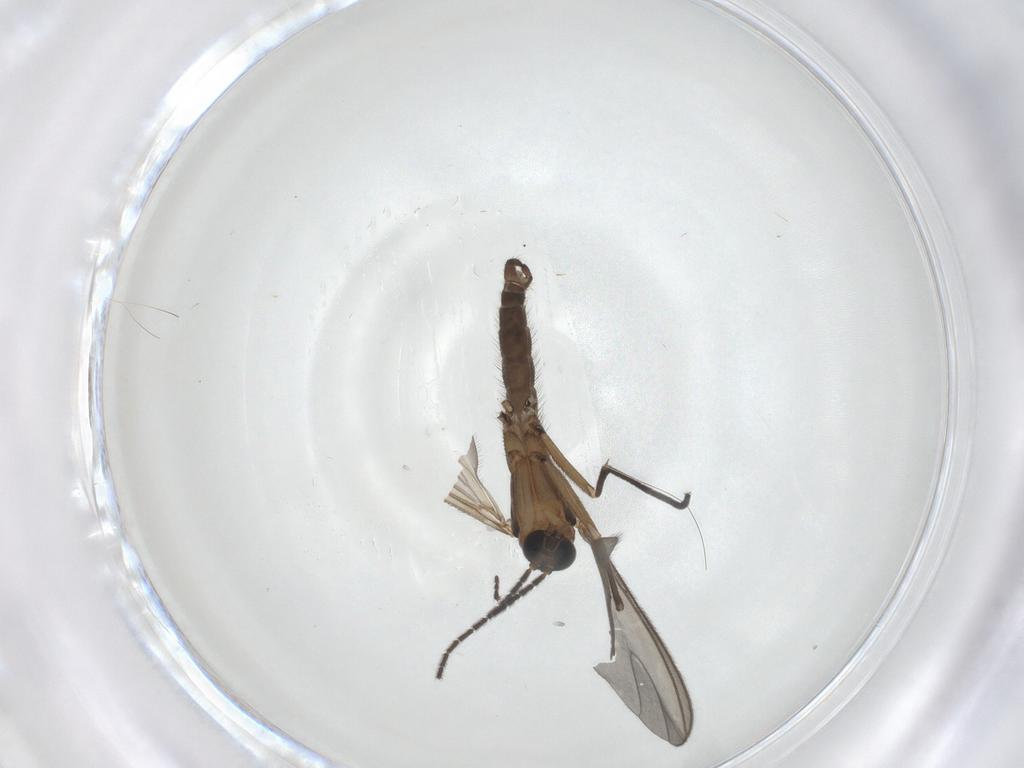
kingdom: Animalia
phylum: Arthropoda
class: Insecta
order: Diptera
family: Sciaridae
